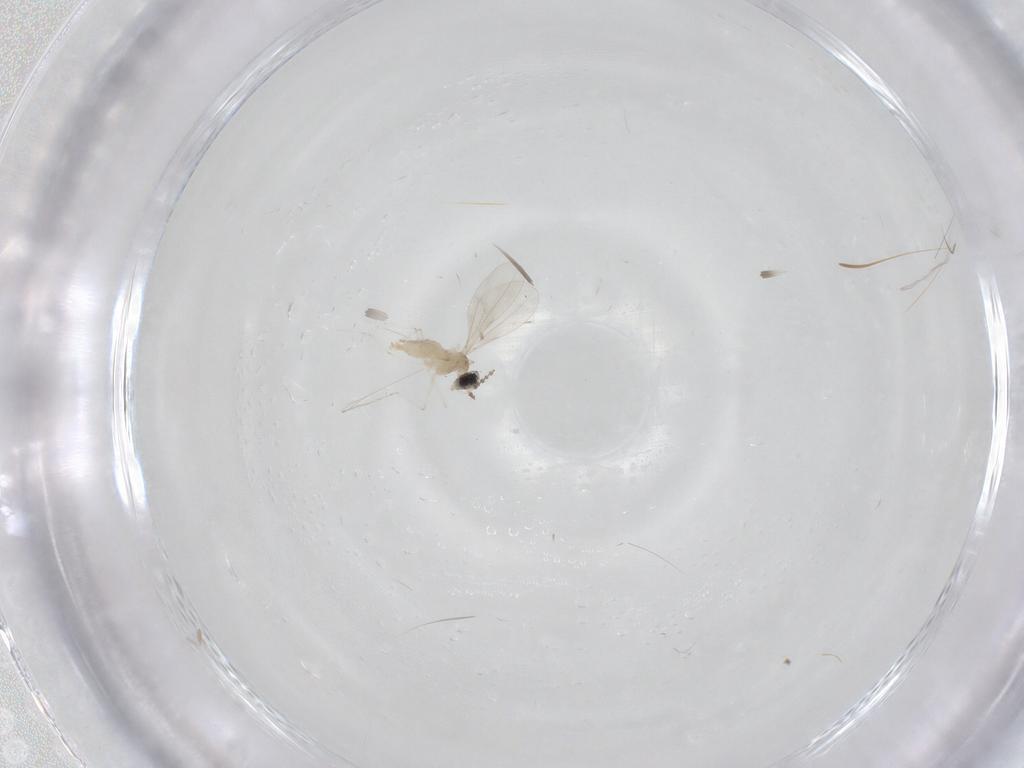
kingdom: Animalia
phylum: Arthropoda
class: Insecta
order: Diptera
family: Cecidomyiidae
